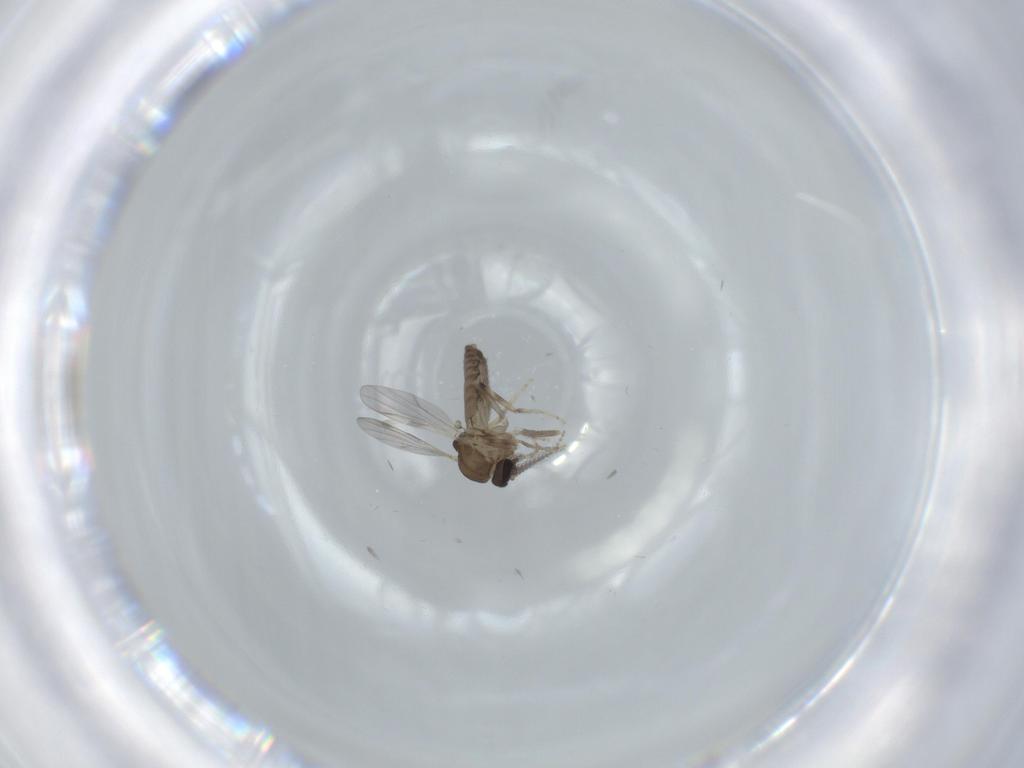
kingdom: Animalia
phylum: Arthropoda
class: Insecta
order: Diptera
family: Ceratopogonidae
